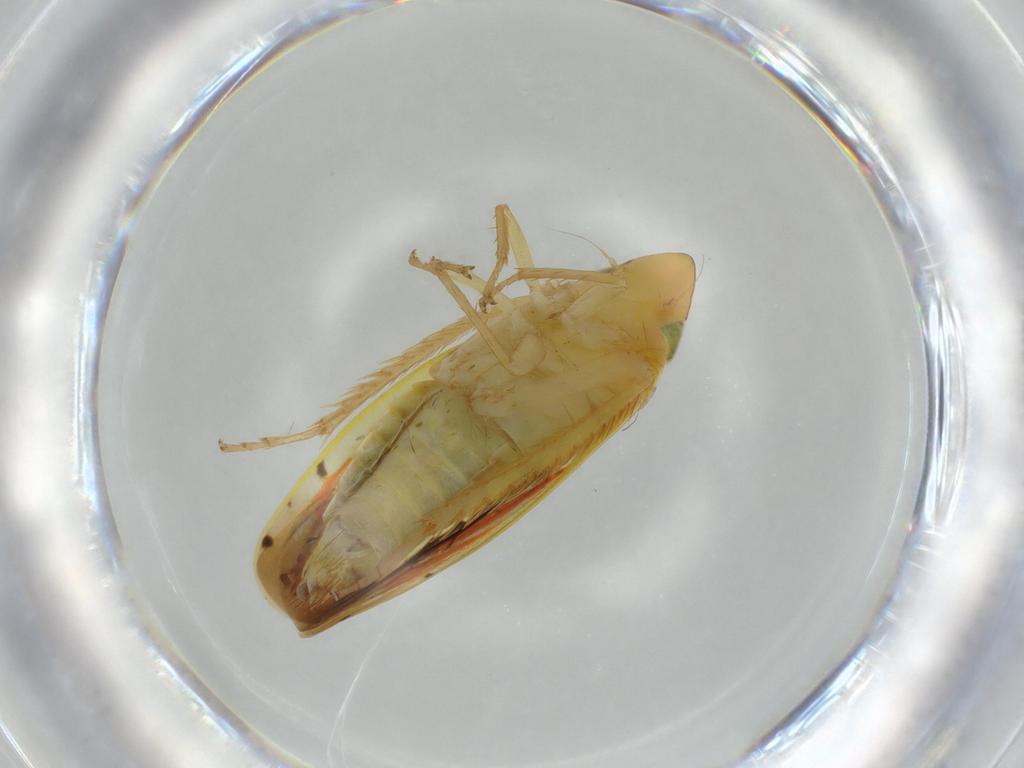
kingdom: Animalia
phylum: Arthropoda
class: Insecta
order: Hemiptera
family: Cicadellidae
